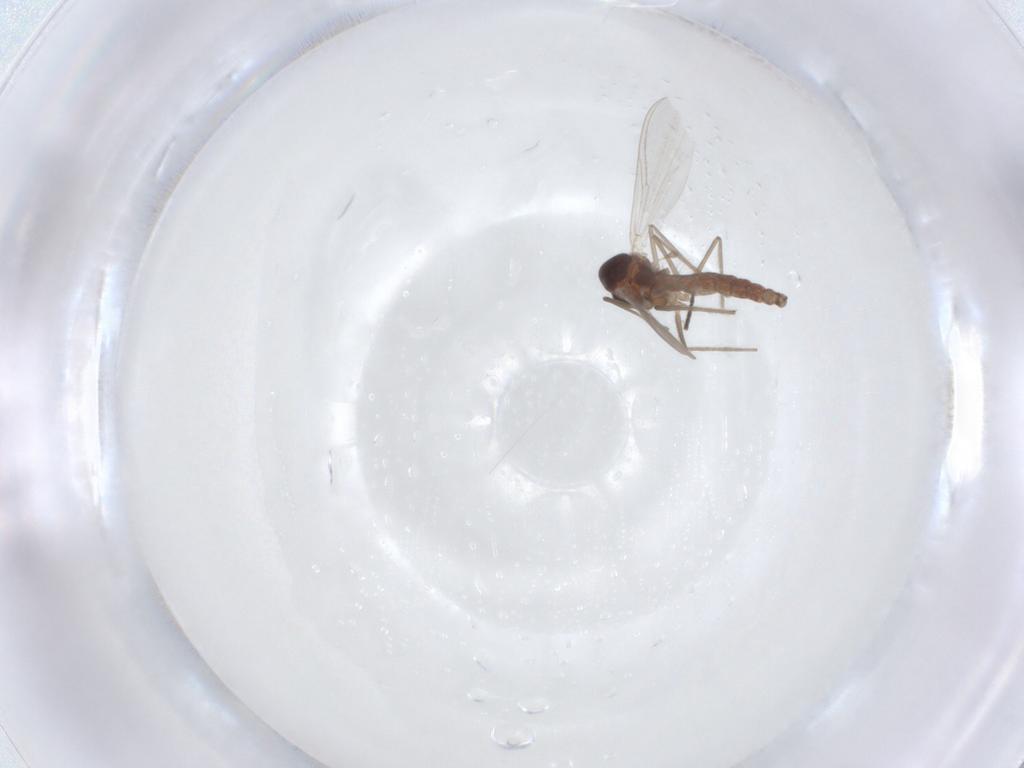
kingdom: Animalia
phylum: Arthropoda
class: Insecta
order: Diptera
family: Chironomidae
